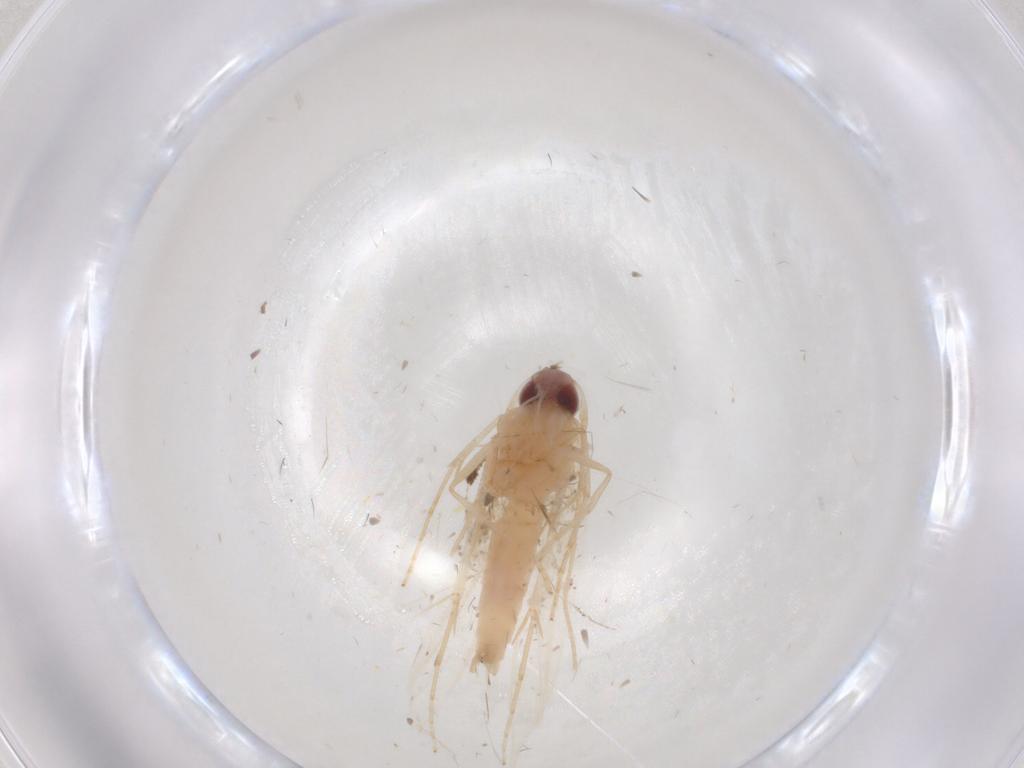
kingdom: Animalia
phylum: Arthropoda
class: Insecta
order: Lepidoptera
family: Cosmopterigidae
